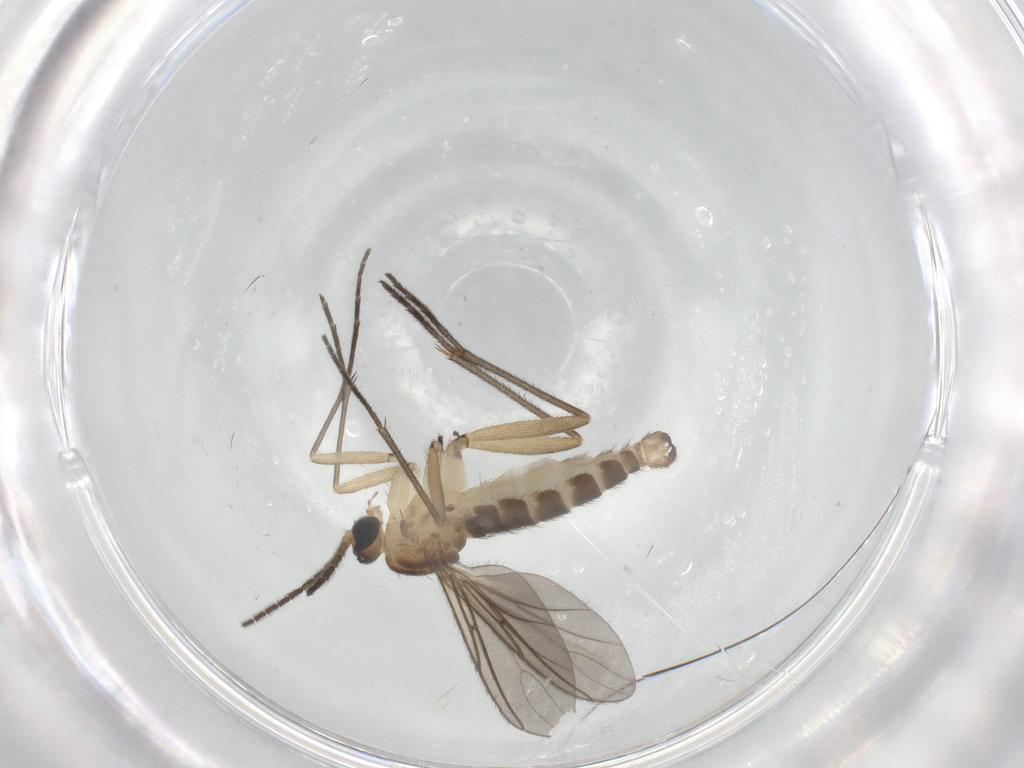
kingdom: Animalia
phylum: Arthropoda
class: Insecta
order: Diptera
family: Sciaridae
